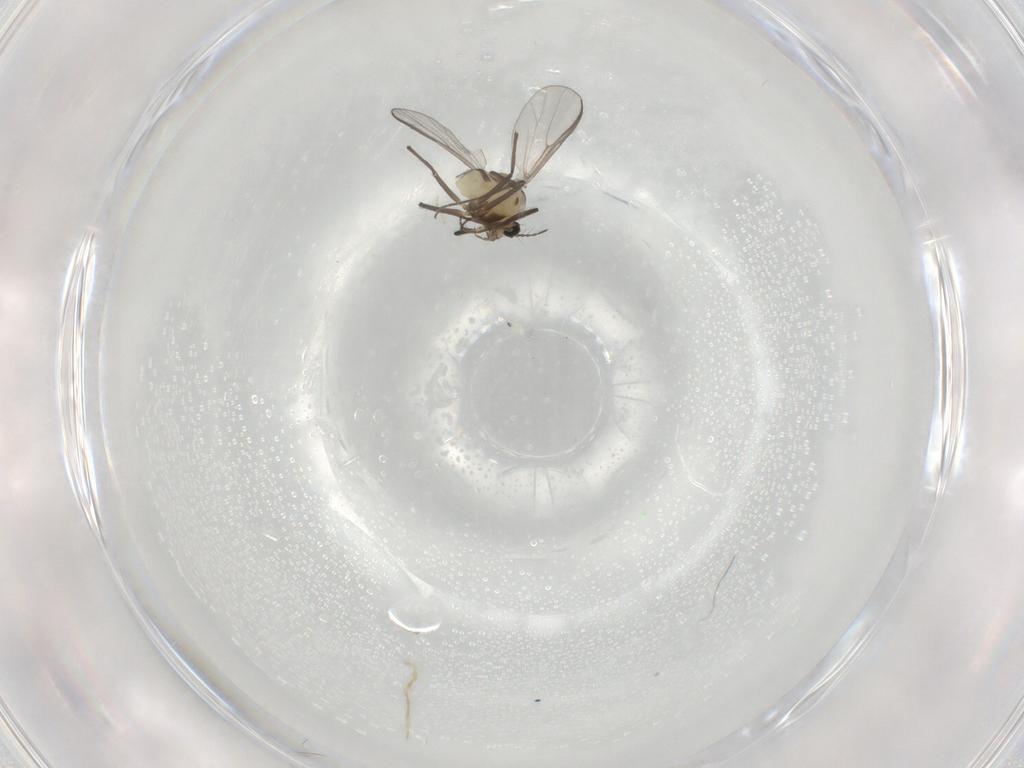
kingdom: Animalia
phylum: Arthropoda
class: Insecta
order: Diptera
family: Chironomidae
